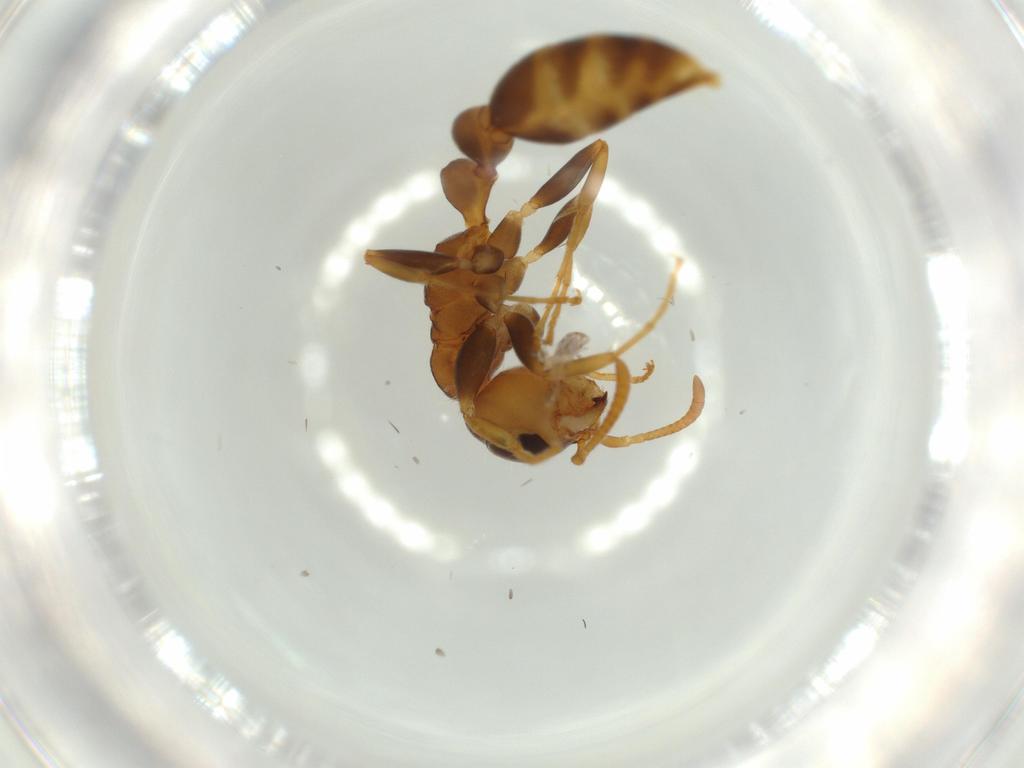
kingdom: Animalia
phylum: Arthropoda
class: Insecta
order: Hymenoptera
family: Formicidae
